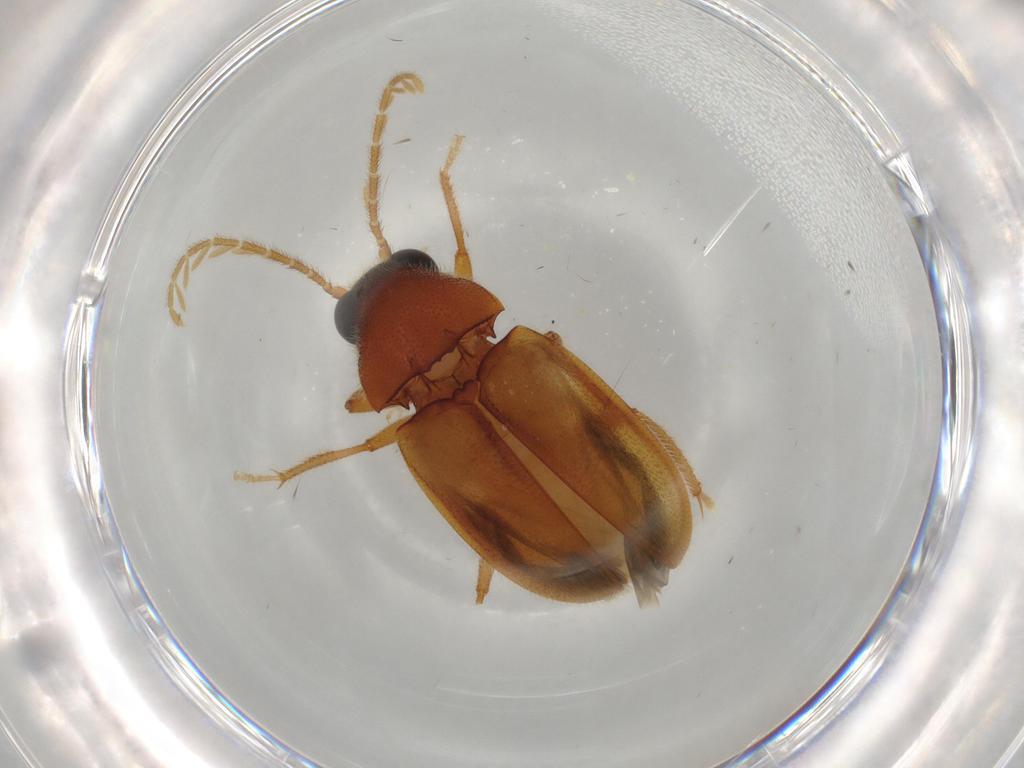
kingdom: Animalia
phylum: Arthropoda
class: Insecta
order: Coleoptera
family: Ptilodactylidae
